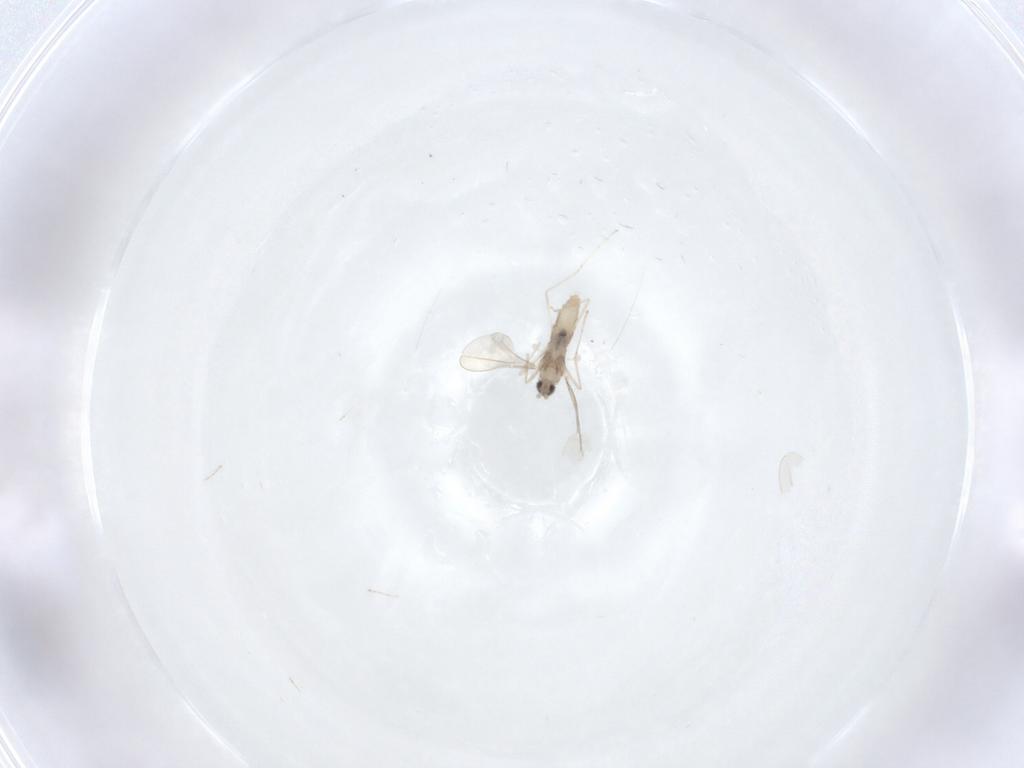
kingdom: Animalia
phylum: Arthropoda
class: Insecta
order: Diptera
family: Cecidomyiidae
